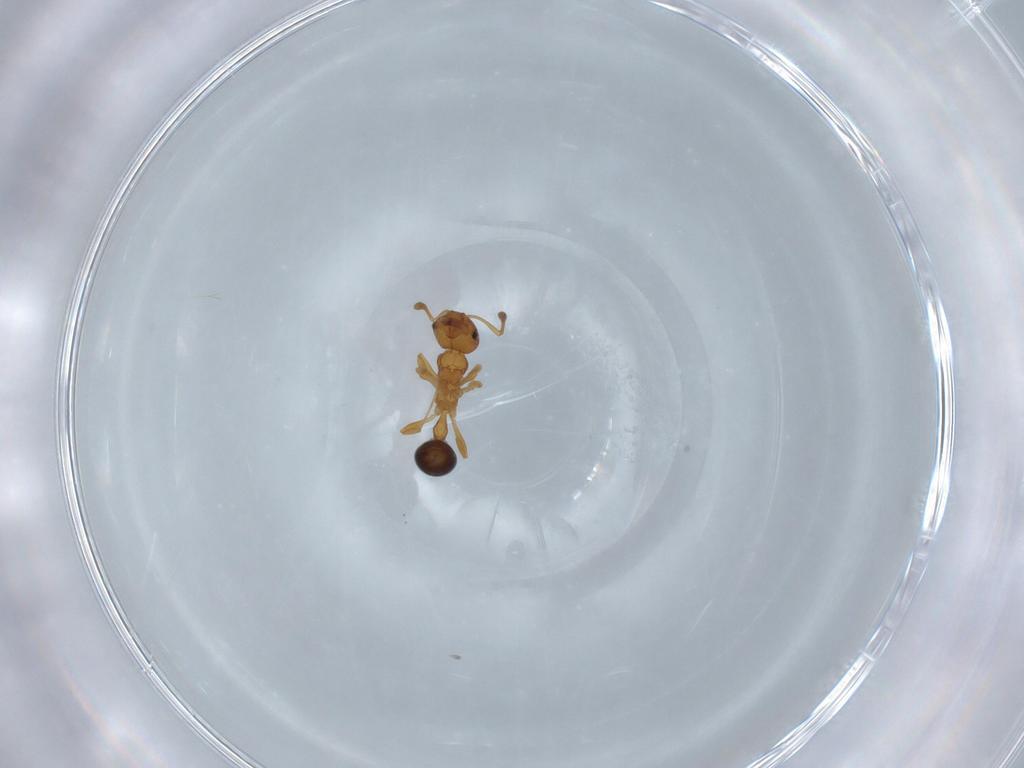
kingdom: Animalia
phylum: Arthropoda
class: Insecta
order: Hymenoptera
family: Formicidae
